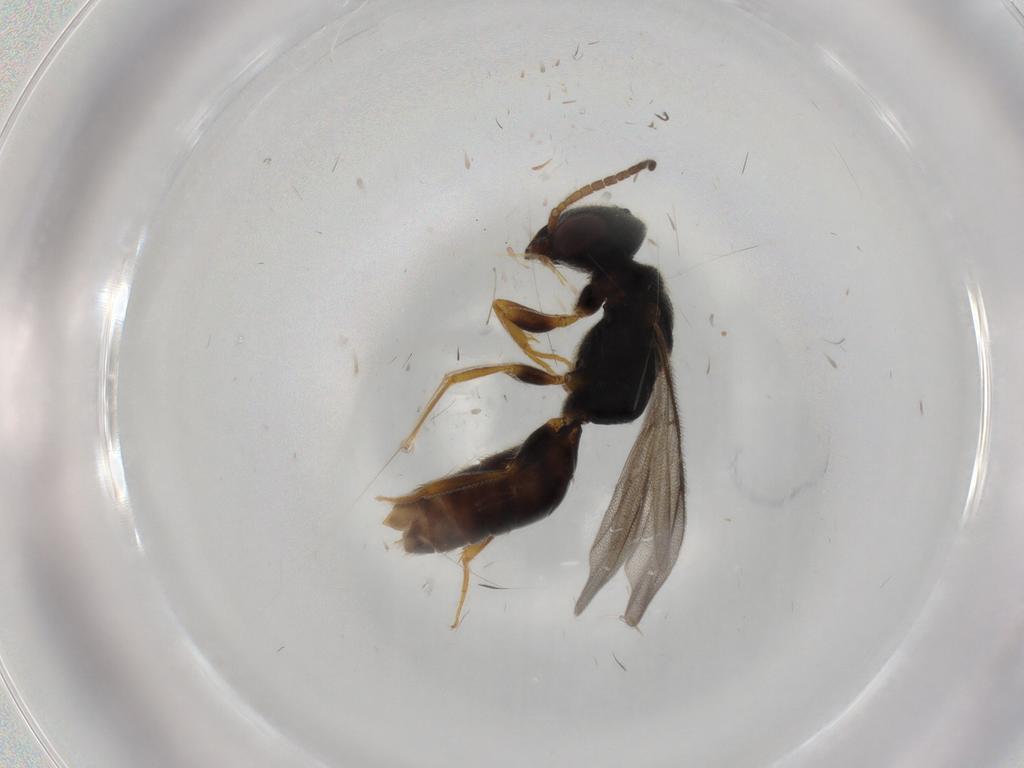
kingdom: Animalia
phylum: Arthropoda
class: Insecta
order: Hymenoptera
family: Bethylidae
